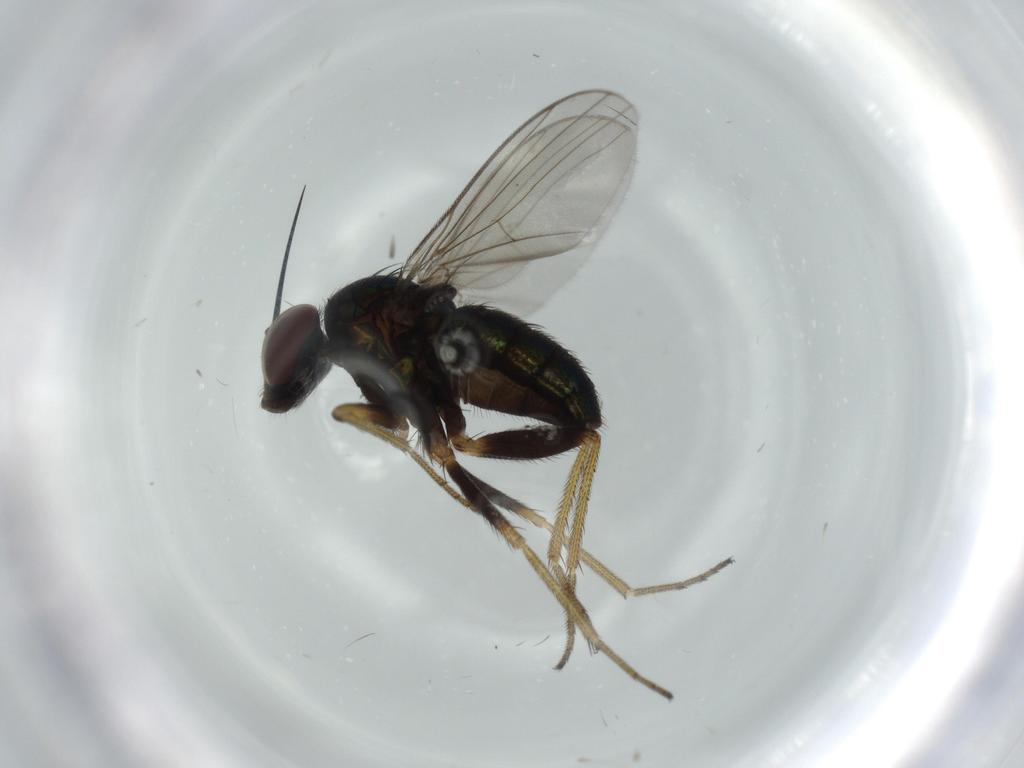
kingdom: Animalia
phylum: Arthropoda
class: Insecta
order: Diptera
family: Dolichopodidae
